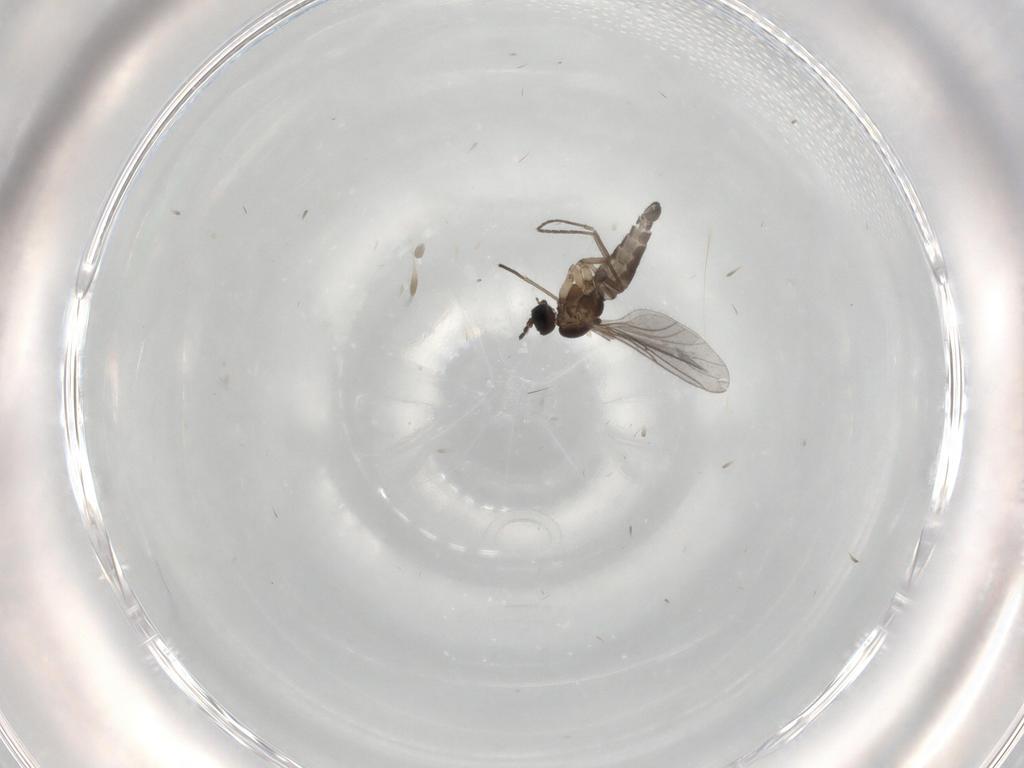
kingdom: Animalia
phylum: Arthropoda
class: Insecta
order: Diptera
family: Sciaridae
